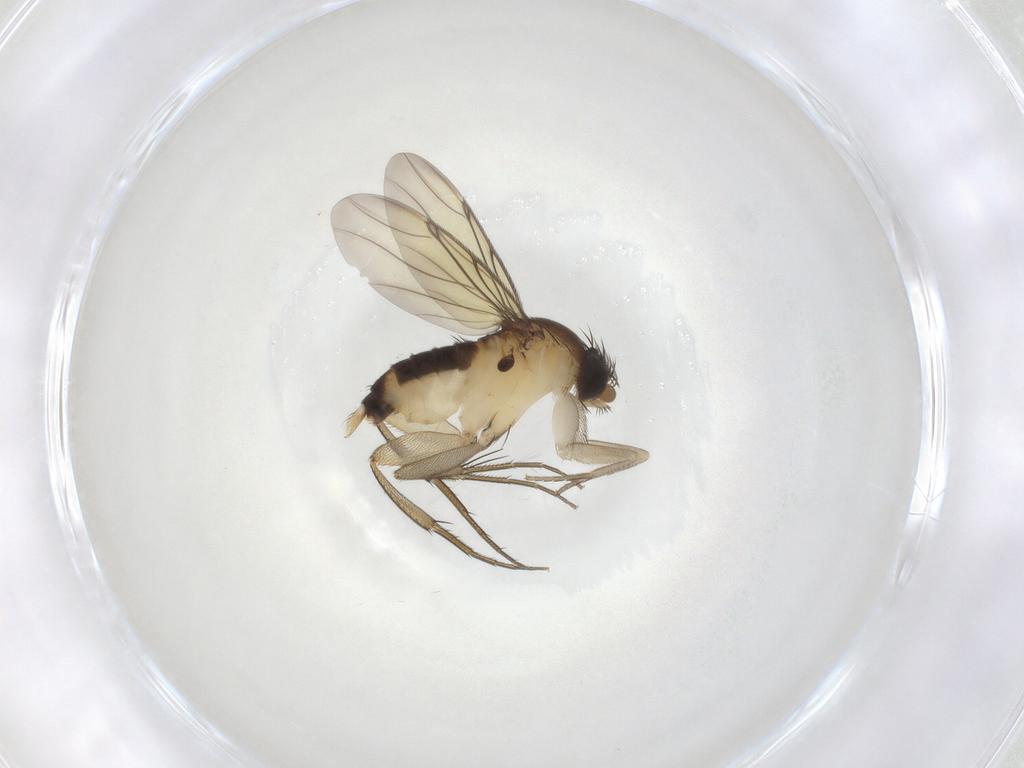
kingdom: Animalia
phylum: Arthropoda
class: Insecta
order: Diptera
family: Phoridae
